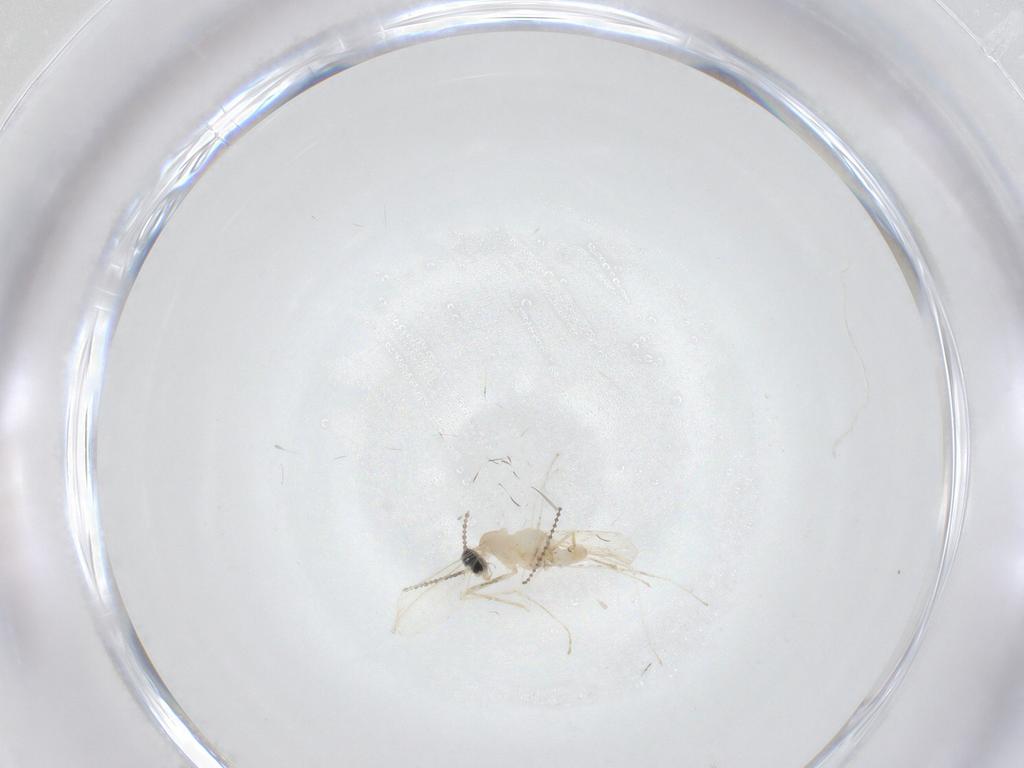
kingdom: Animalia
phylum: Arthropoda
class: Insecta
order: Diptera
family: Cecidomyiidae
